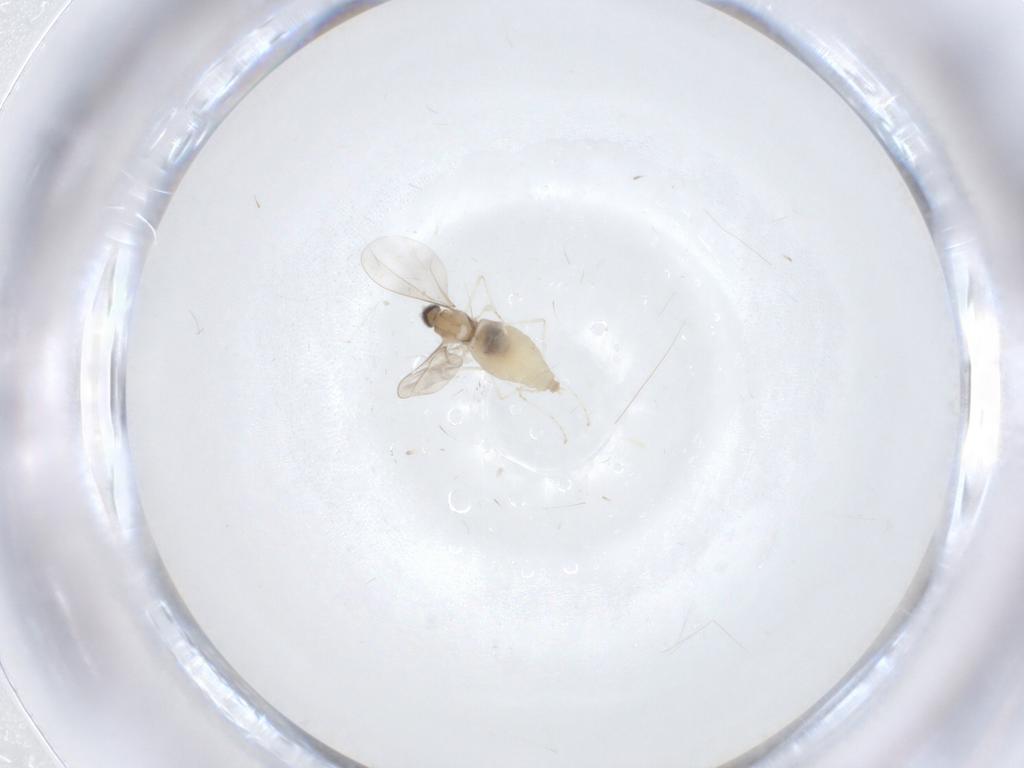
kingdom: Animalia
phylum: Arthropoda
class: Insecta
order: Diptera
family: Cecidomyiidae
